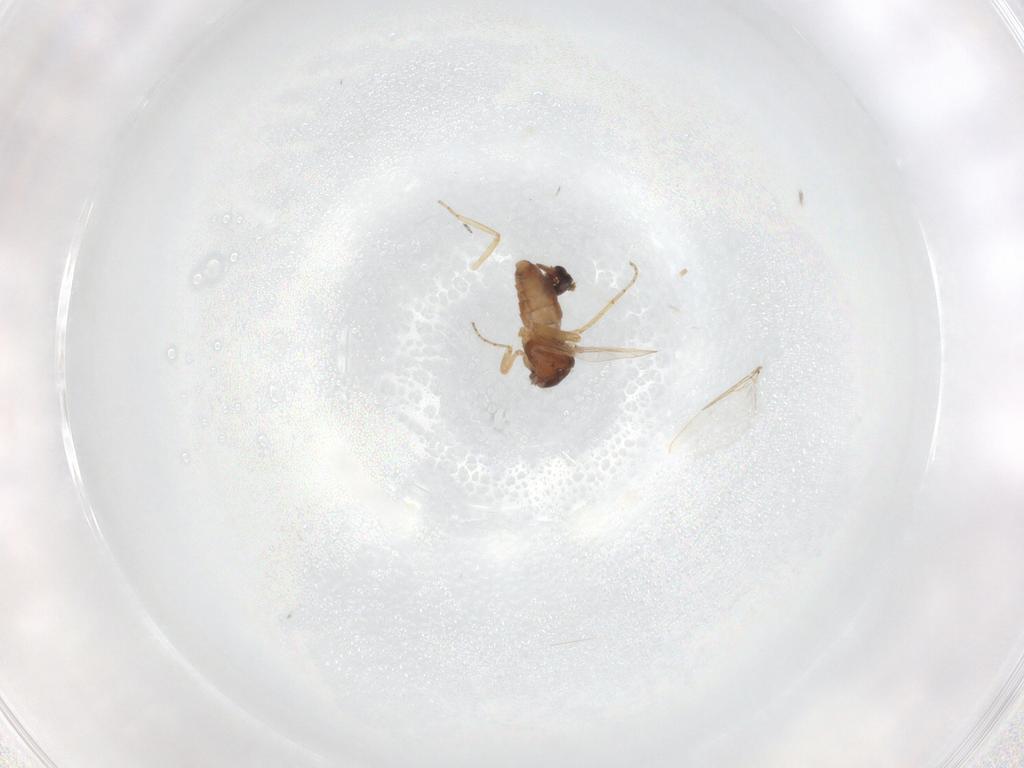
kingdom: Animalia
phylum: Arthropoda
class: Insecta
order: Diptera
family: Ceratopogonidae
